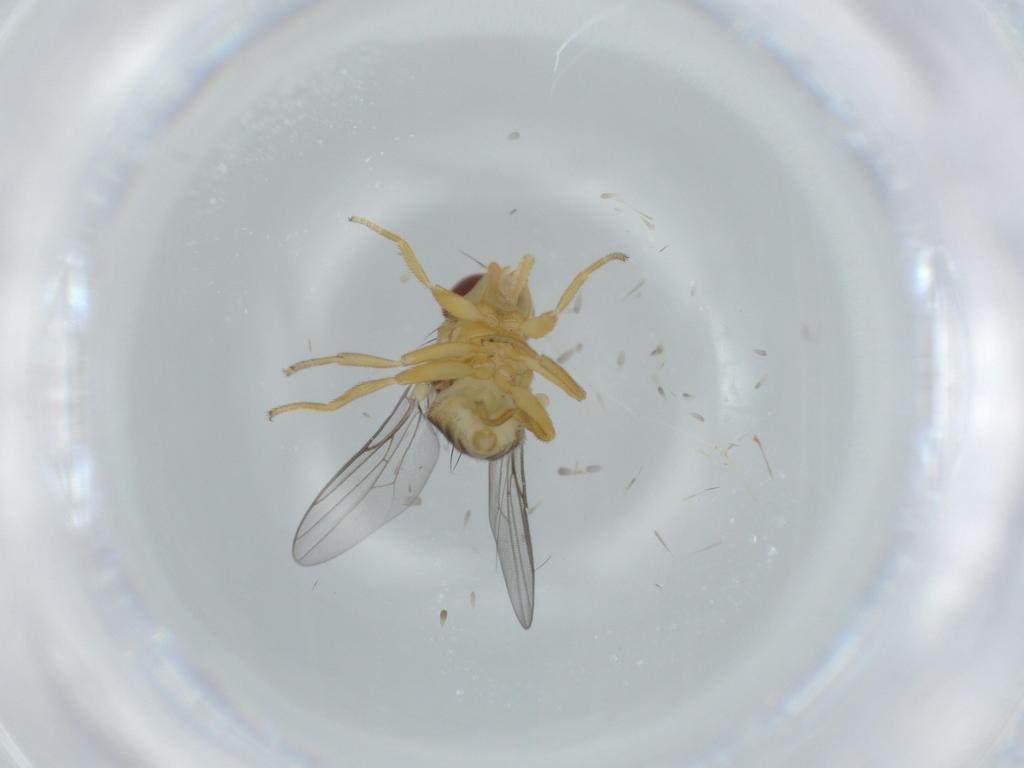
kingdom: Animalia
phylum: Arthropoda
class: Insecta
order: Diptera
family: Chloropidae
